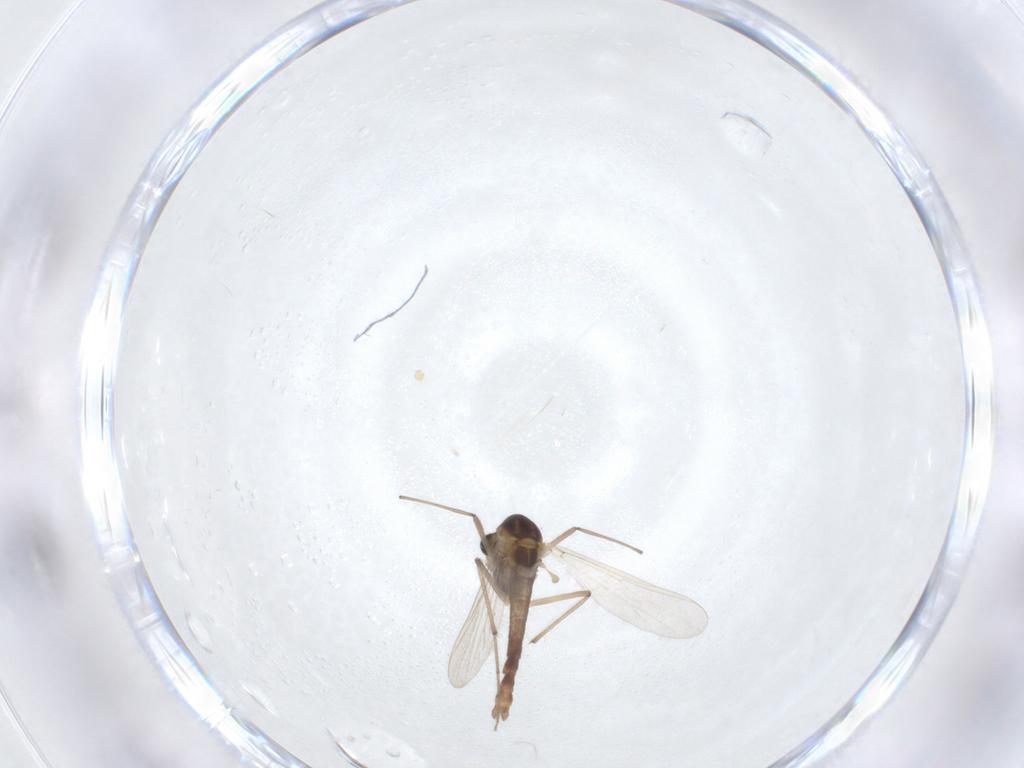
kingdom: Animalia
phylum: Arthropoda
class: Insecta
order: Diptera
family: Chironomidae
